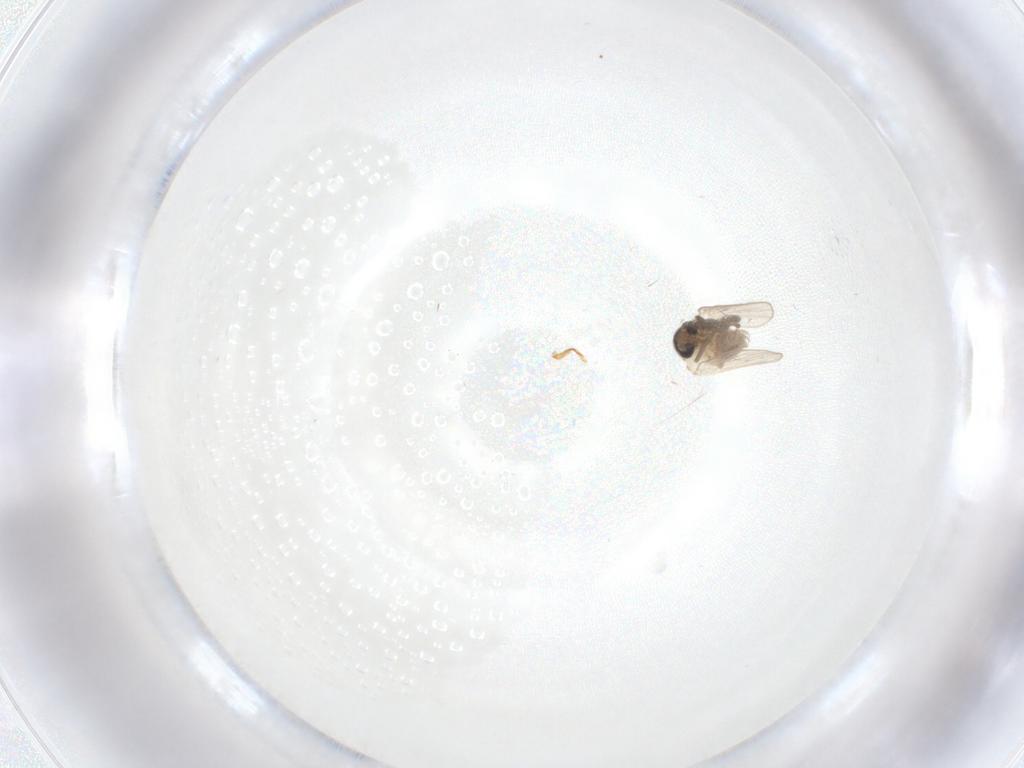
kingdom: Animalia
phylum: Arthropoda
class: Insecta
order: Diptera
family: Psychodidae
